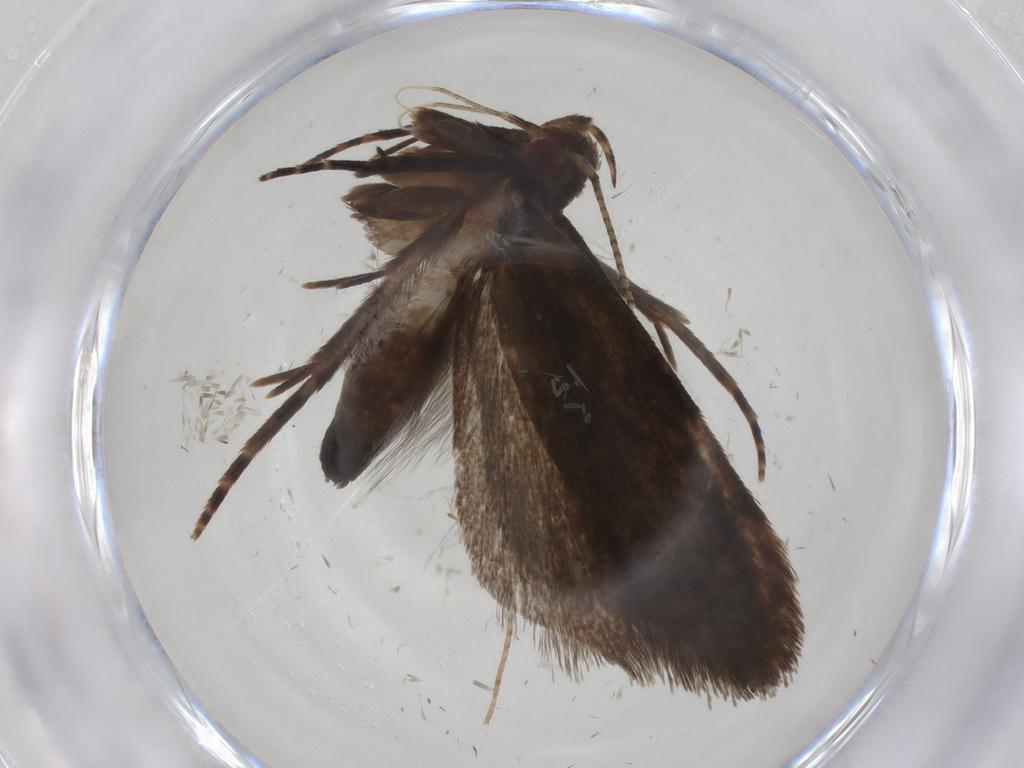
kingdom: Animalia
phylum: Arthropoda
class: Insecta
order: Lepidoptera
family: Gelechiidae
